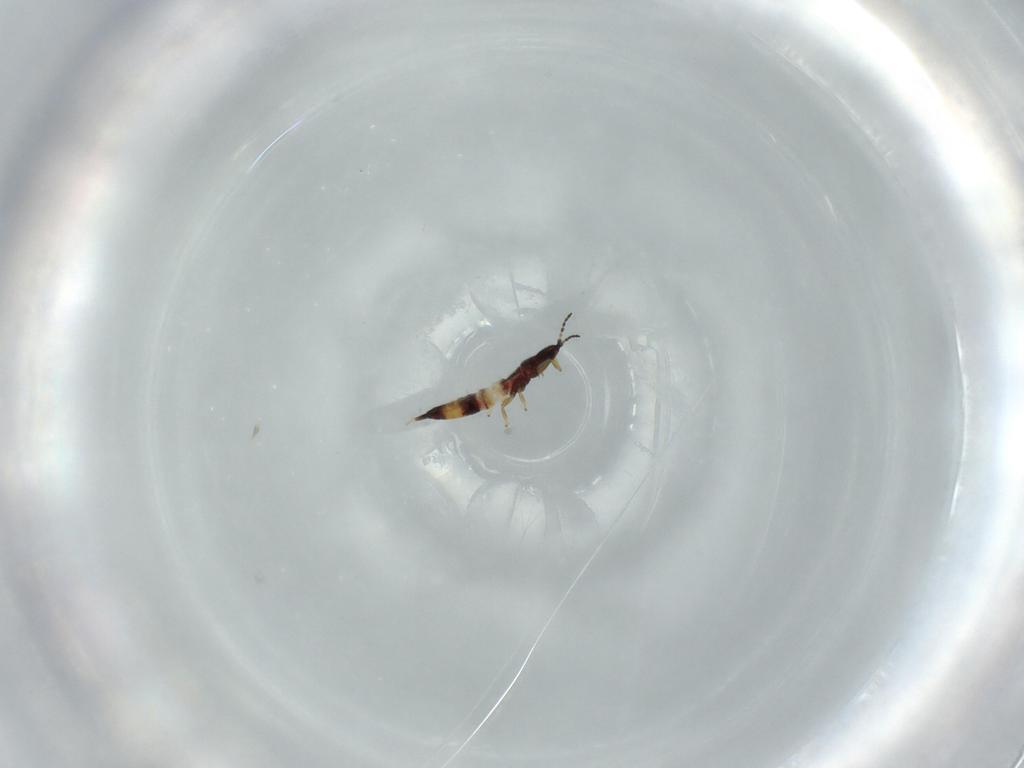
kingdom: Animalia
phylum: Arthropoda
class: Insecta
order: Thysanoptera
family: Phlaeothripidae
